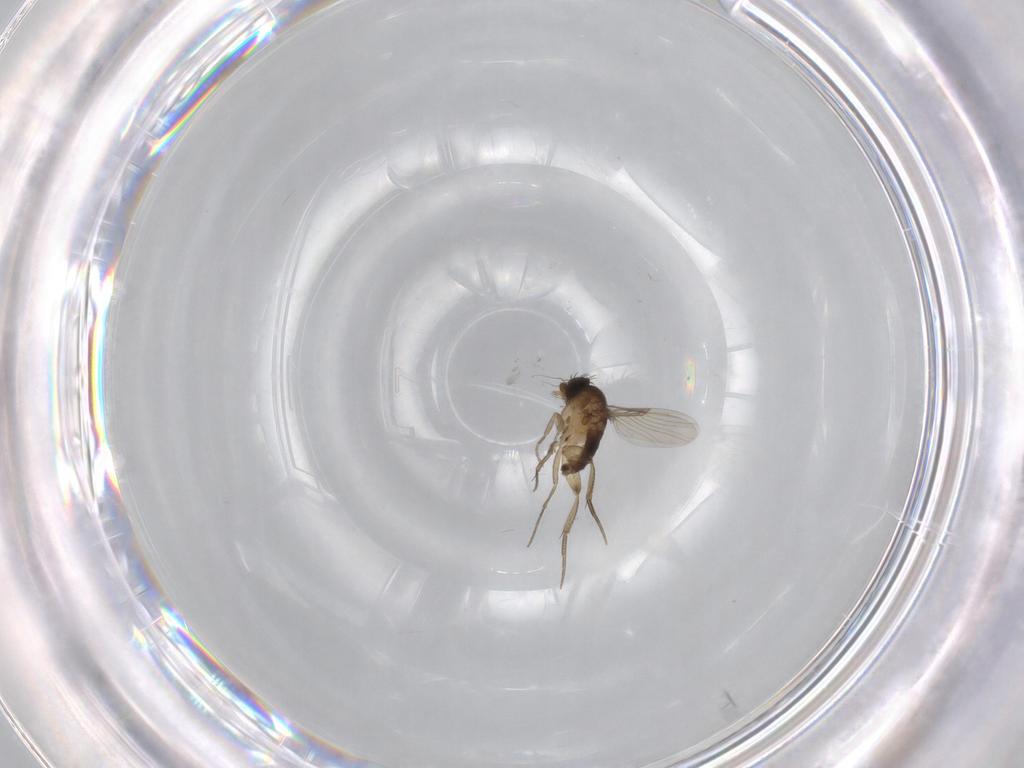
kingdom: Animalia
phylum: Arthropoda
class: Insecta
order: Diptera
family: Phoridae
